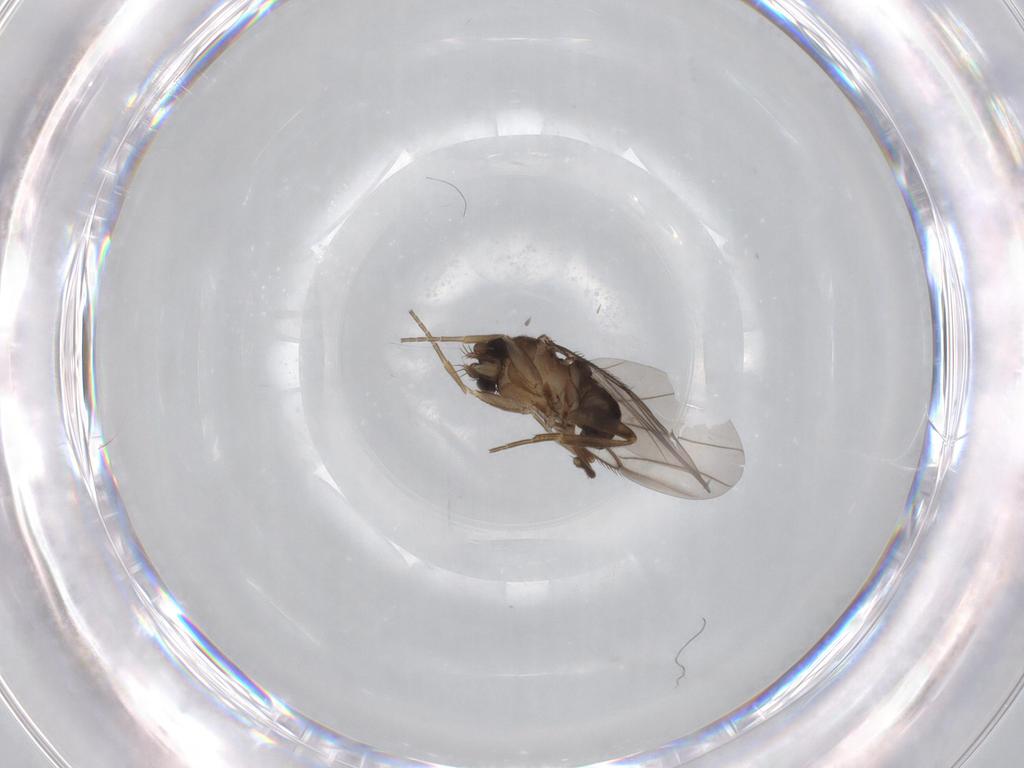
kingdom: Animalia
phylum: Arthropoda
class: Insecta
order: Diptera
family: Phoridae
